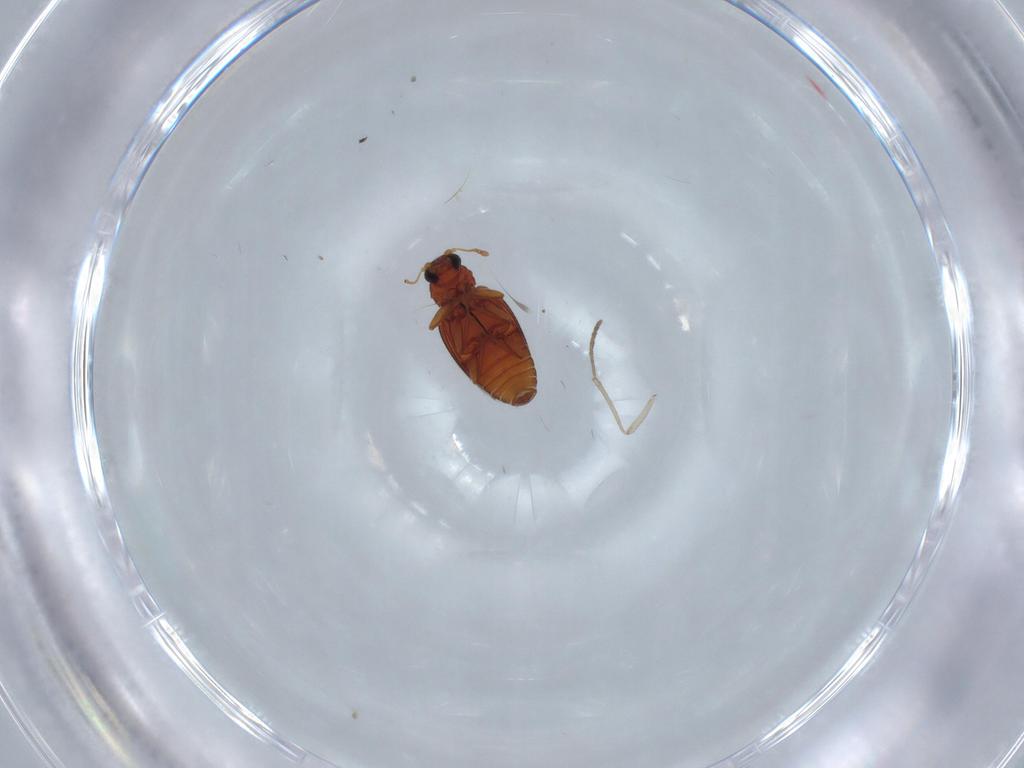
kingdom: Animalia
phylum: Arthropoda
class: Insecta
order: Coleoptera
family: Latridiidae
